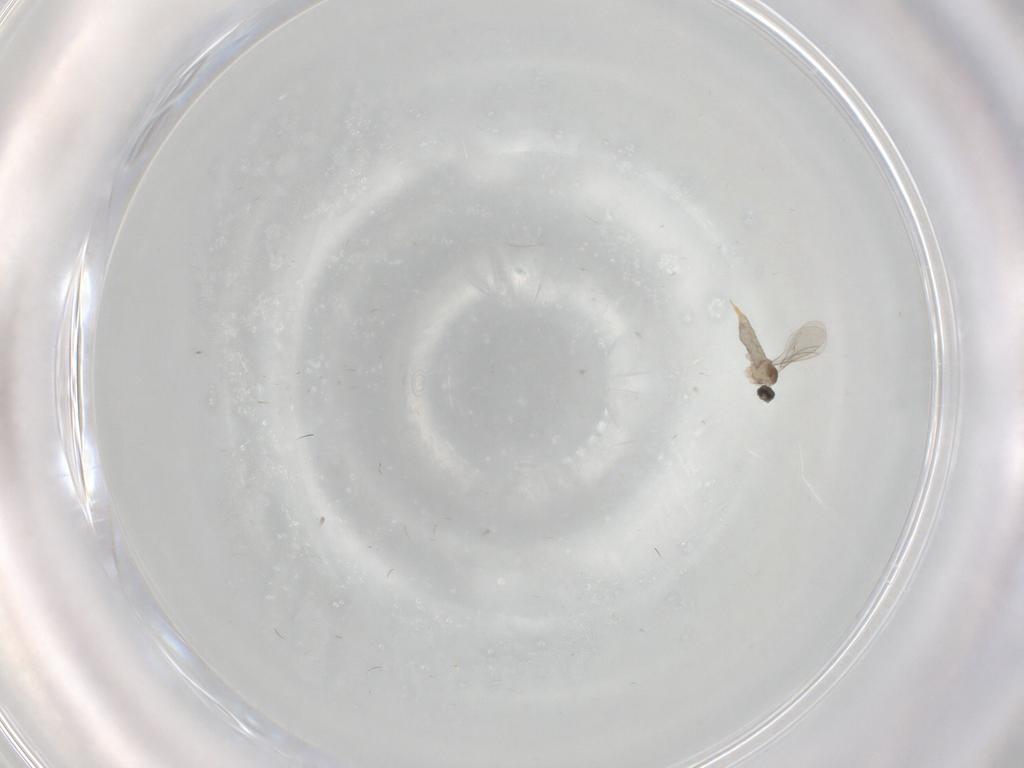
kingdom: Animalia
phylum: Arthropoda
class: Insecta
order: Diptera
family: Cecidomyiidae
